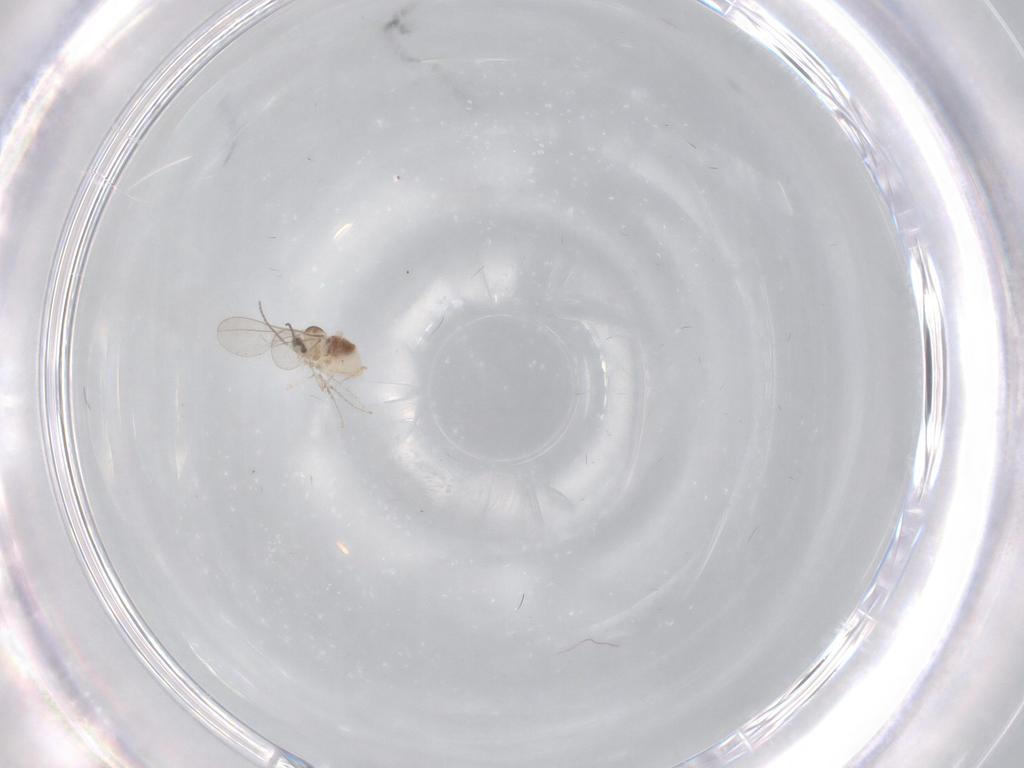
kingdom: Animalia
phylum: Arthropoda
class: Insecta
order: Diptera
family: Cecidomyiidae
